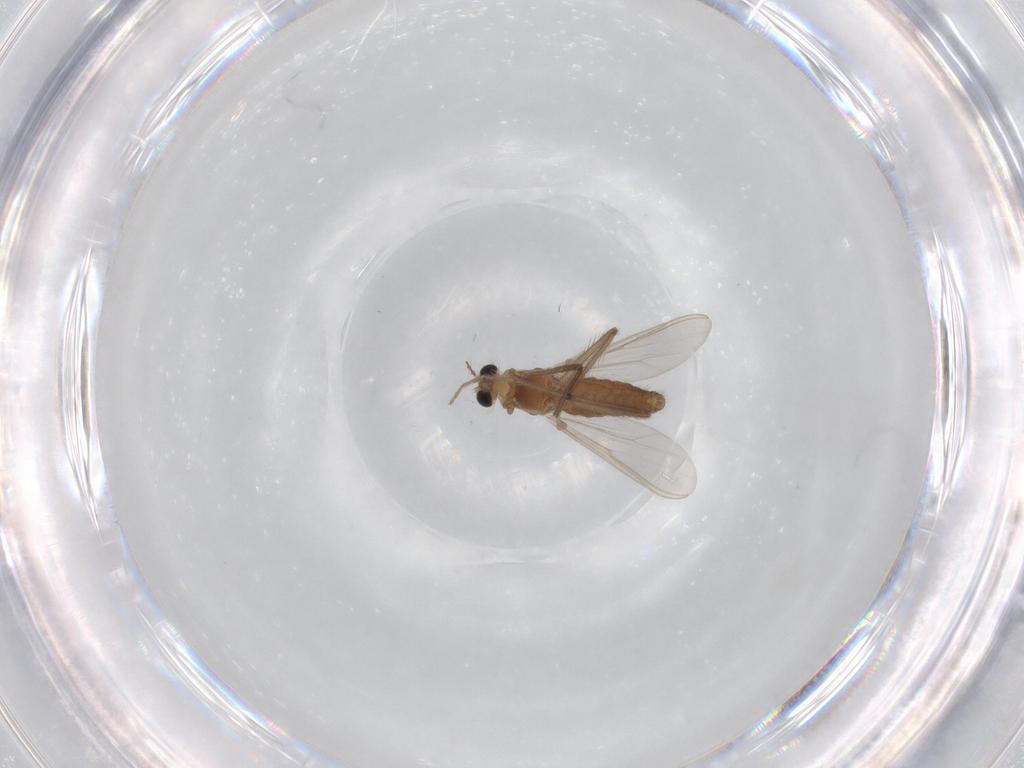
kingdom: Animalia
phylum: Arthropoda
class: Insecta
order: Diptera
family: Chironomidae
